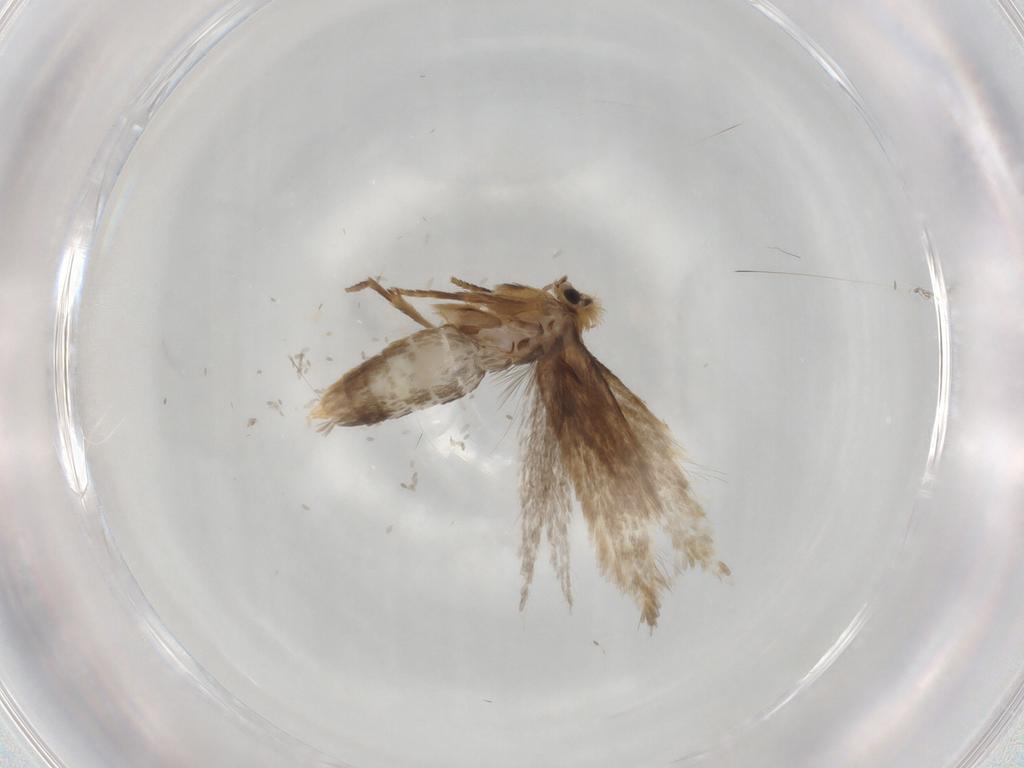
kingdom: Animalia
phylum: Arthropoda
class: Insecta
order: Lepidoptera
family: Nepticulidae
